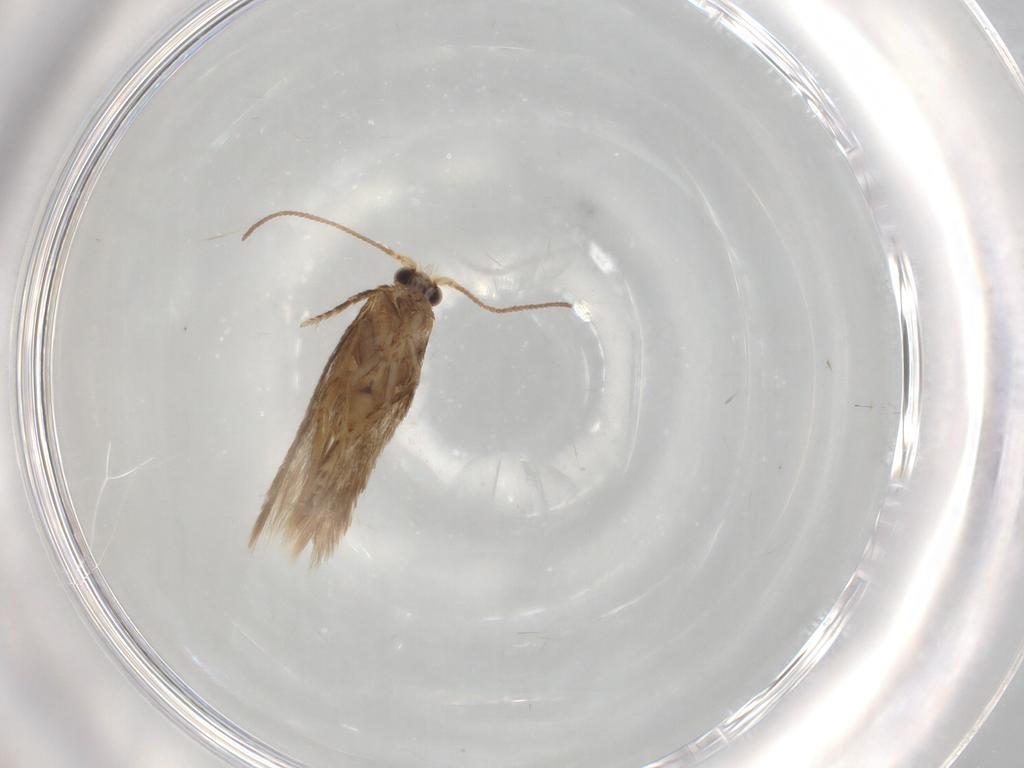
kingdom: Animalia
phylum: Arthropoda
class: Insecta
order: Lepidoptera
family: Nepticulidae
